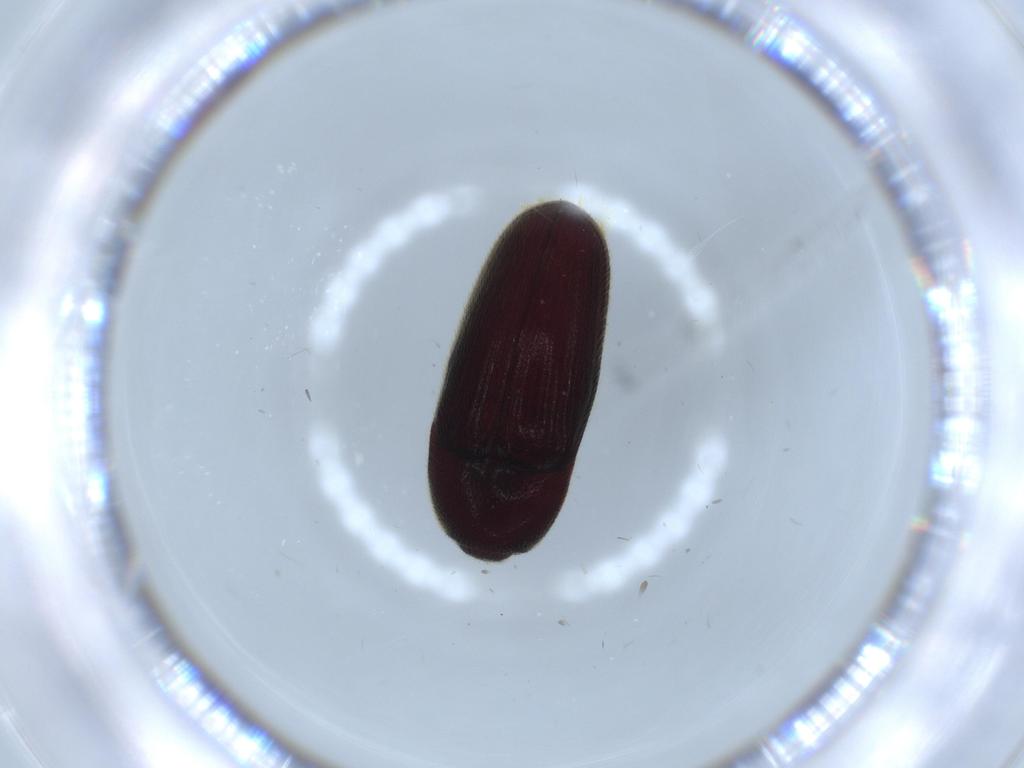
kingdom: Animalia
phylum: Arthropoda
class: Insecta
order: Coleoptera
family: Throscidae
